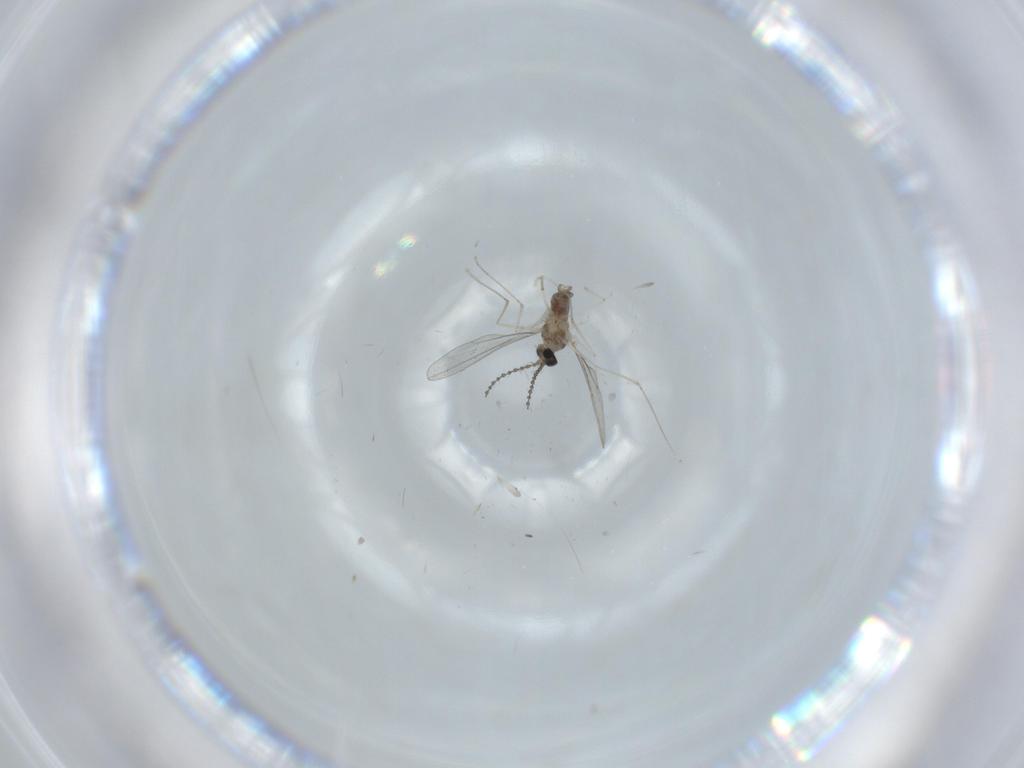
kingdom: Animalia
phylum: Arthropoda
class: Insecta
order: Diptera
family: Cecidomyiidae
